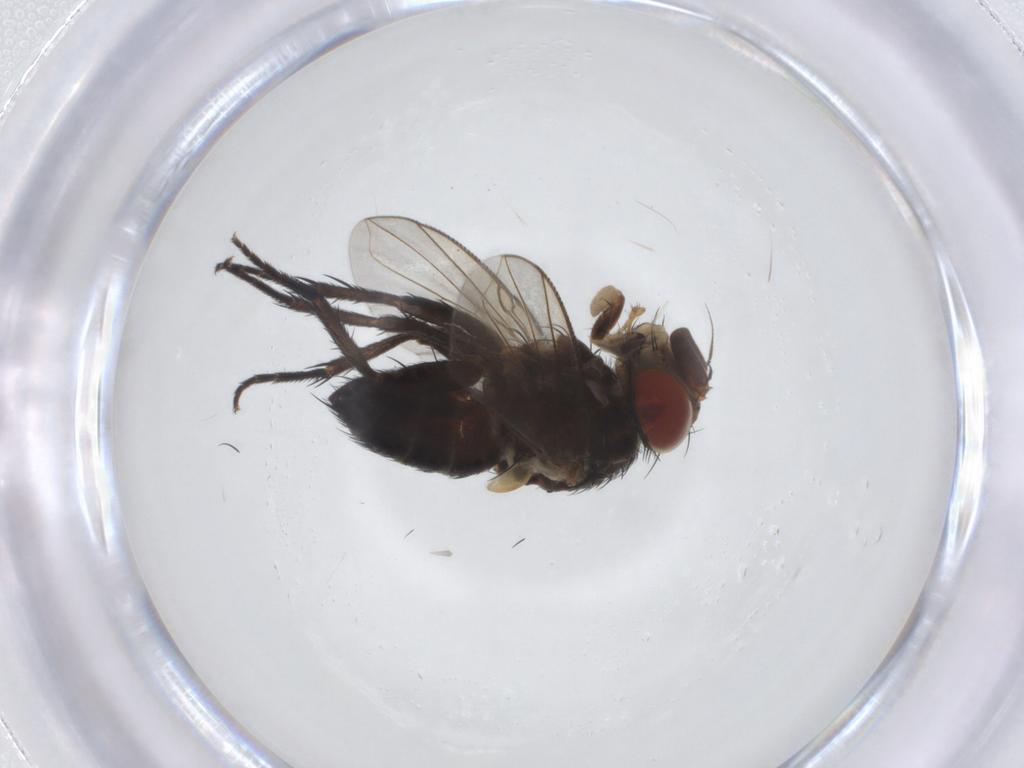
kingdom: Animalia
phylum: Arthropoda
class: Insecta
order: Diptera
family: Tachinidae
